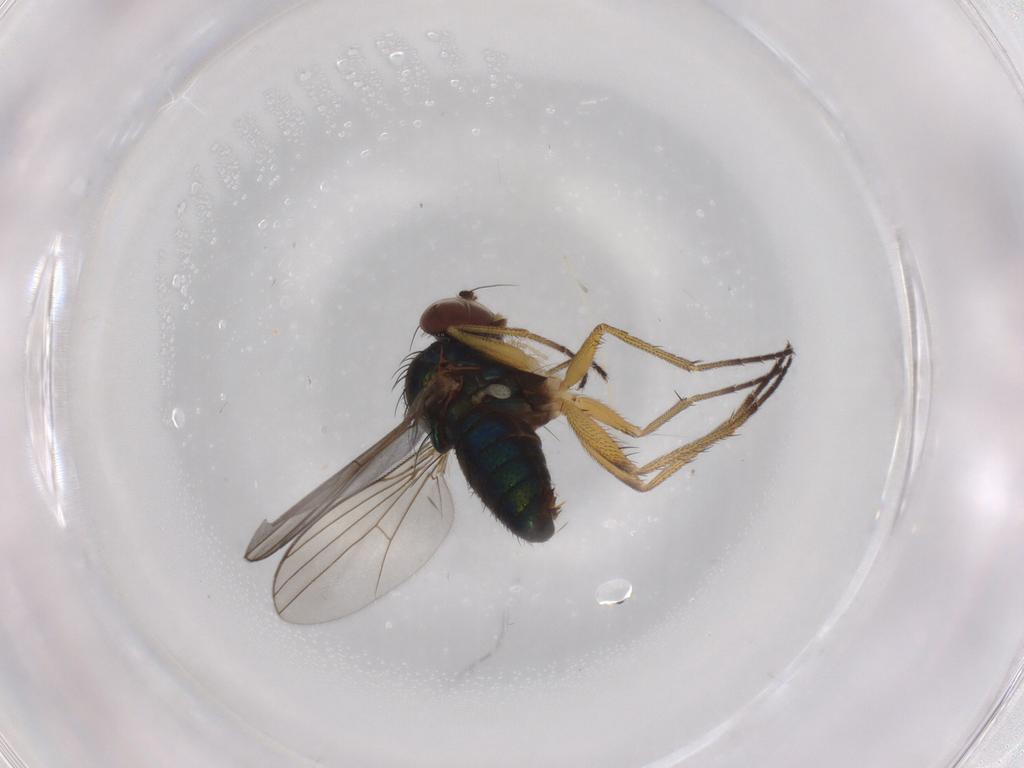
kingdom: Animalia
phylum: Arthropoda
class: Insecta
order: Diptera
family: Dolichopodidae
